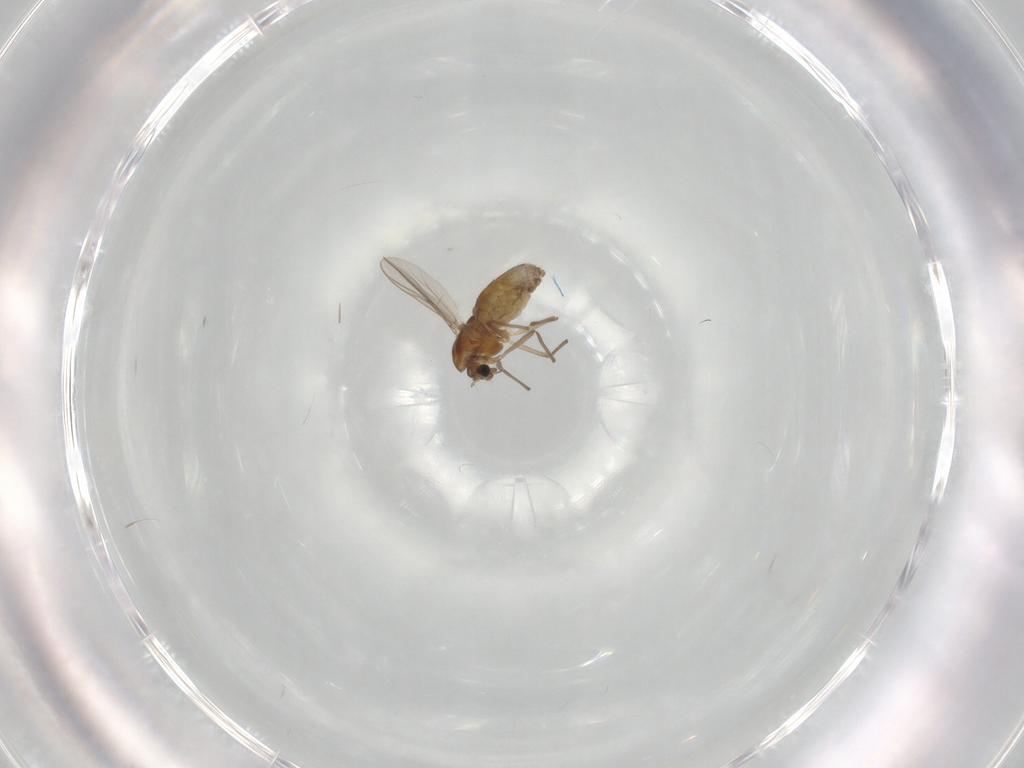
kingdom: Animalia
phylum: Arthropoda
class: Insecta
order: Diptera
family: Chironomidae
